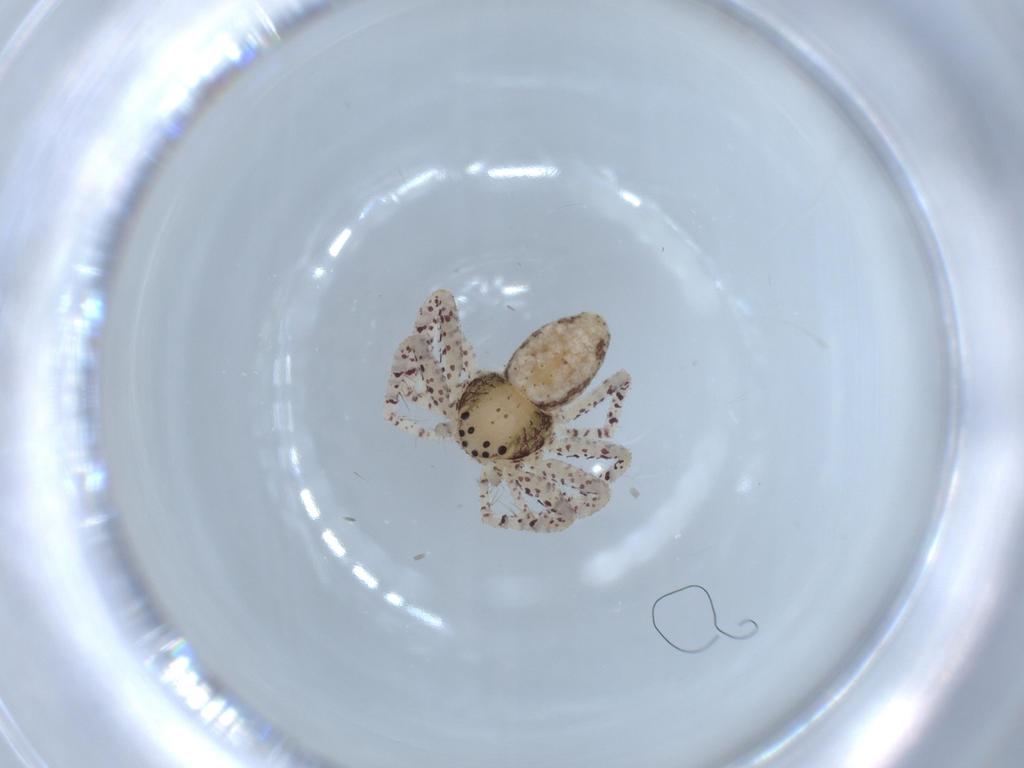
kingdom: Animalia
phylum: Arthropoda
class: Arachnida
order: Araneae
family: Philodromidae
